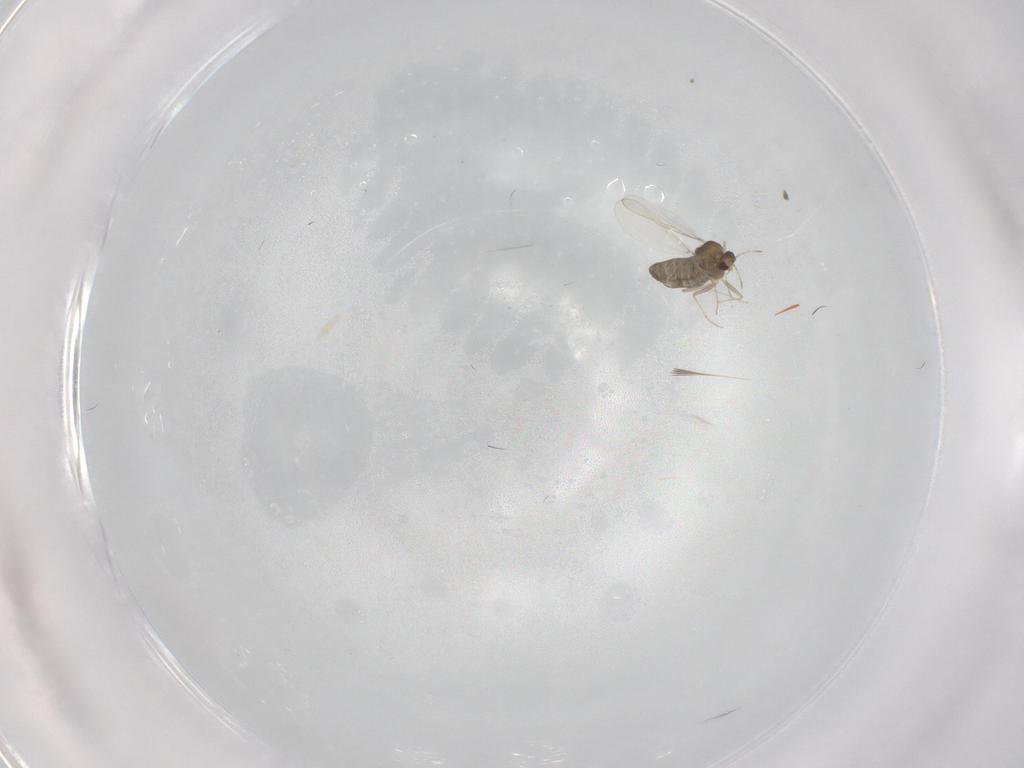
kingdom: Animalia
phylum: Arthropoda
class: Insecta
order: Diptera
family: Chironomidae
